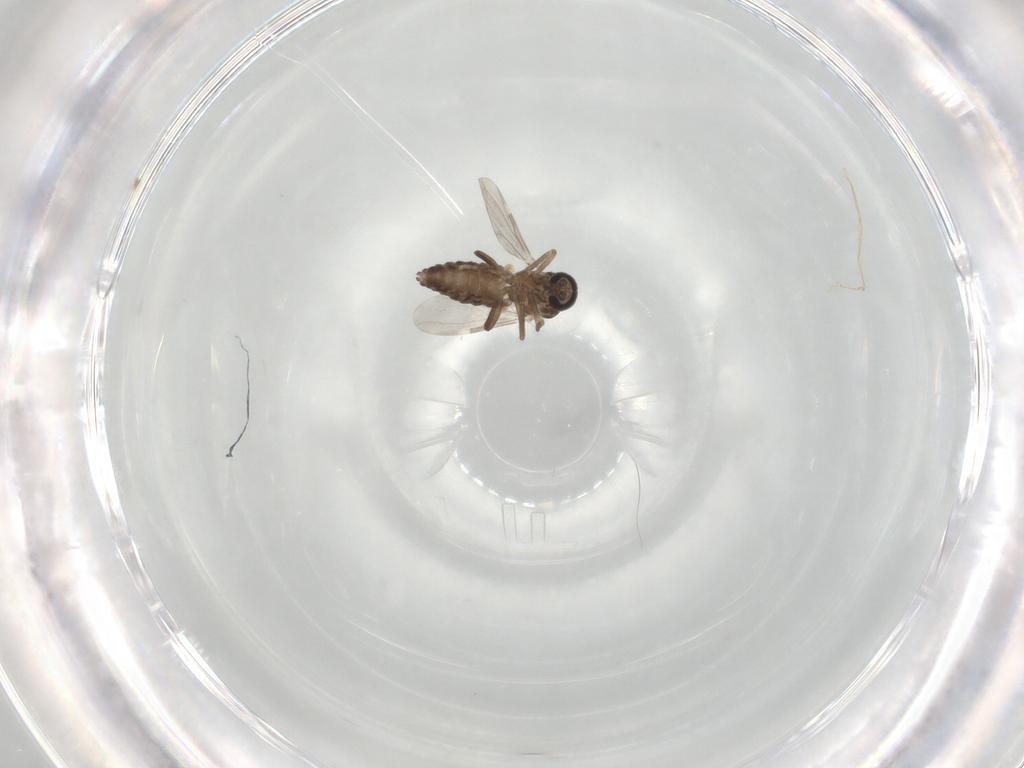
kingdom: Animalia
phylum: Arthropoda
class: Insecta
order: Diptera
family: Ceratopogonidae
